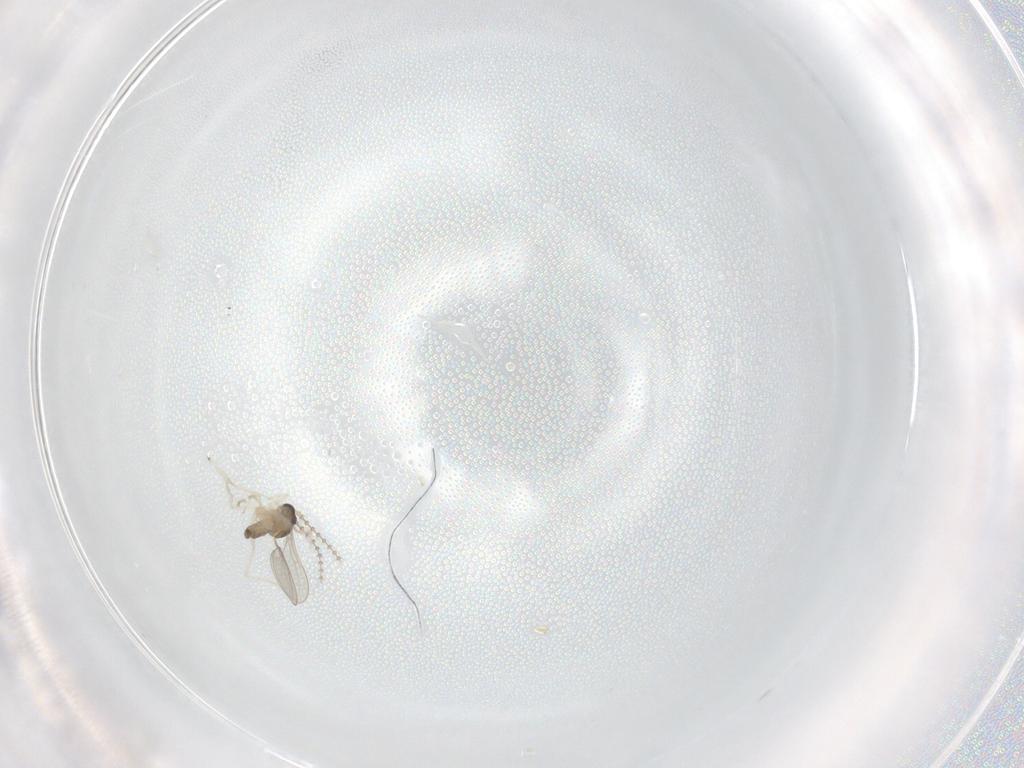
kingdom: Animalia
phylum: Arthropoda
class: Insecta
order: Diptera
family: Cecidomyiidae
